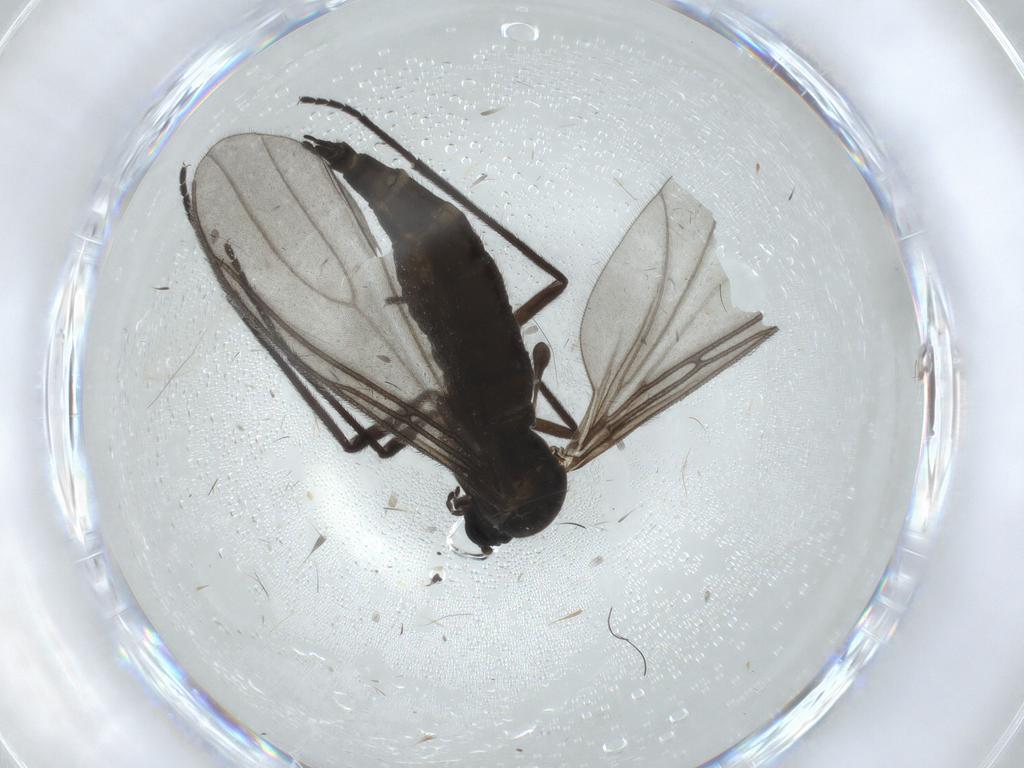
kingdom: Animalia
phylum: Arthropoda
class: Insecta
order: Diptera
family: Sciaridae
